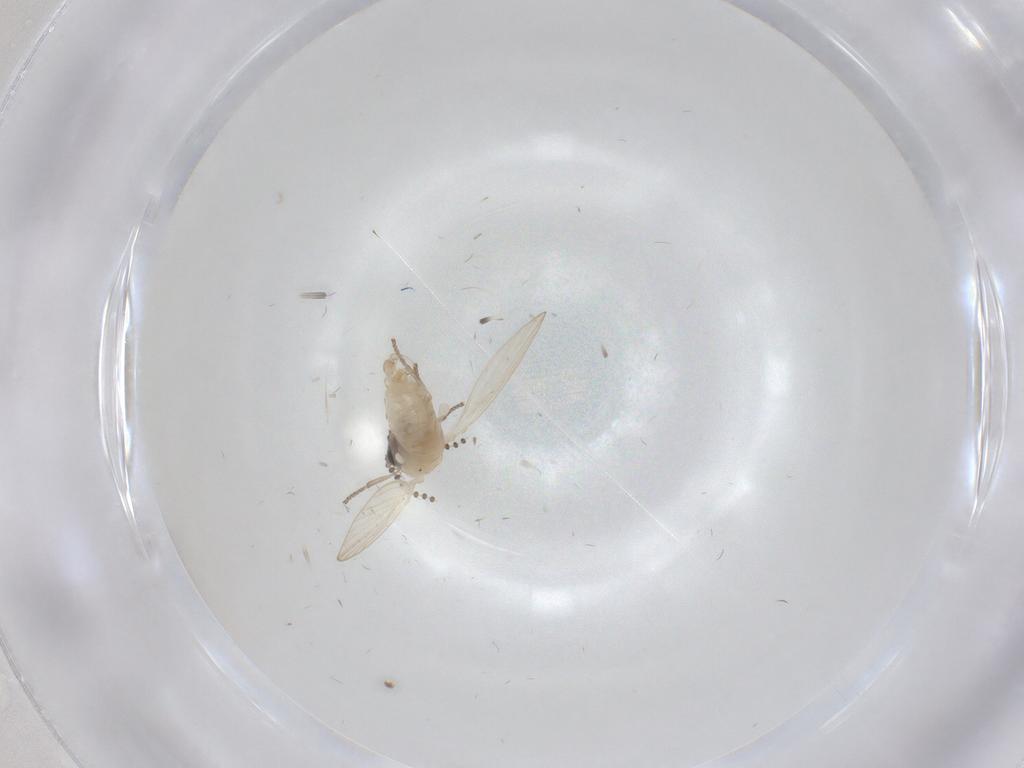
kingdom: Animalia
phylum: Arthropoda
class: Insecta
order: Diptera
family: Psychodidae
